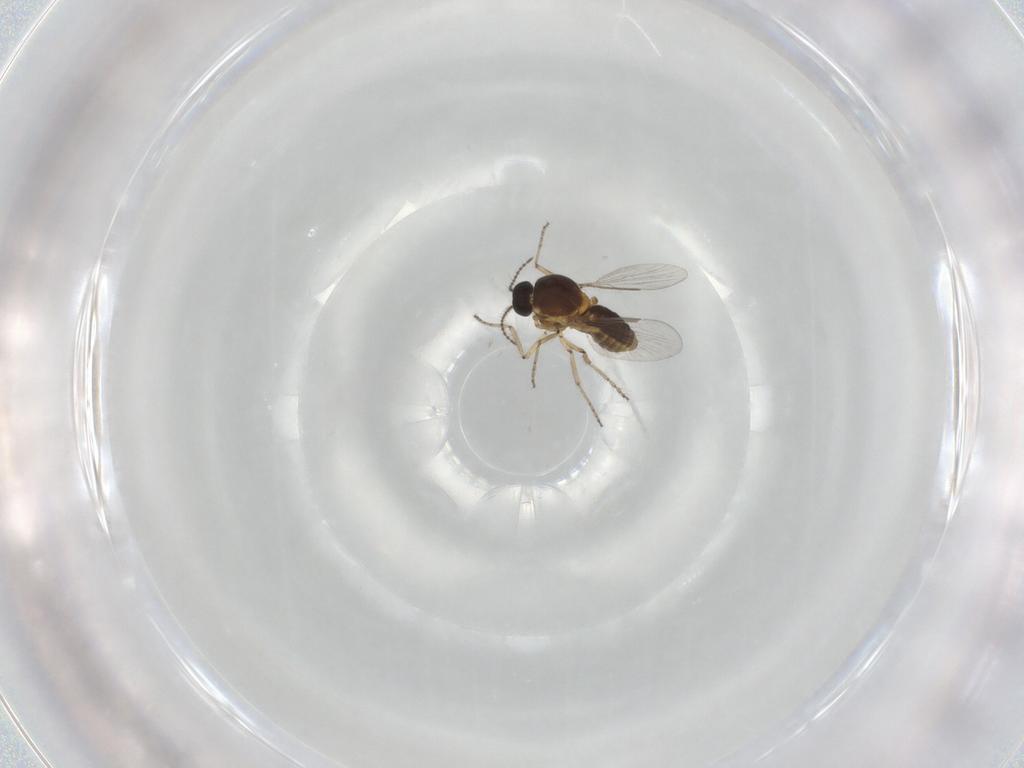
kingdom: Animalia
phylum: Arthropoda
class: Insecta
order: Diptera
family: Ceratopogonidae
